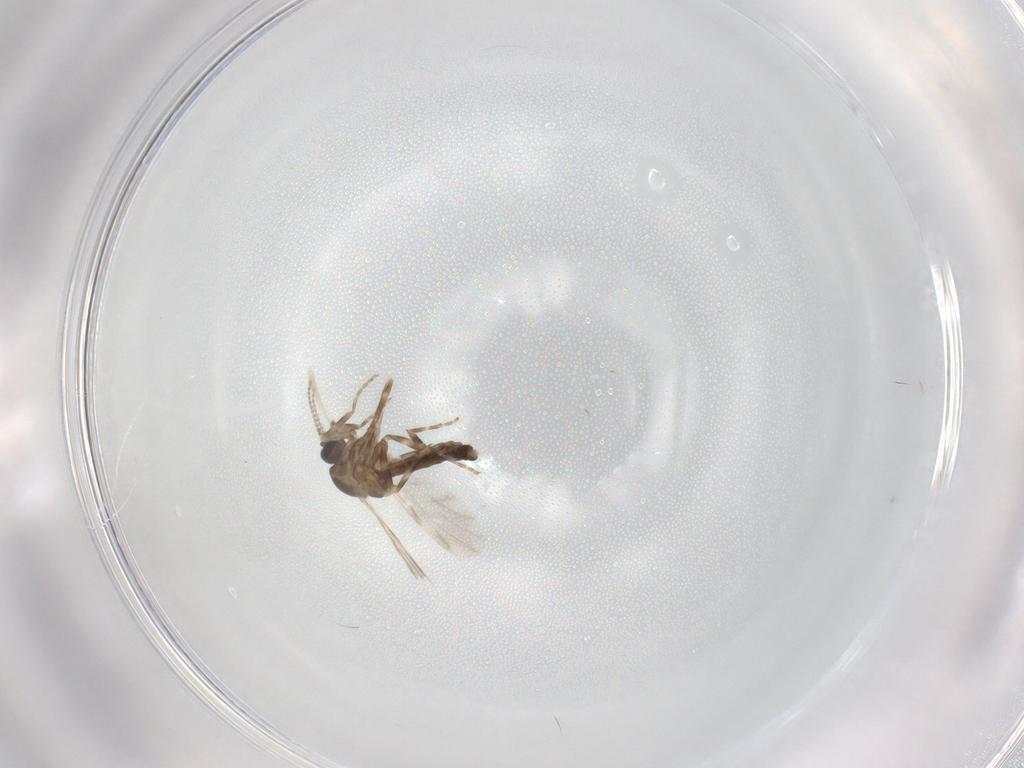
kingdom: Animalia
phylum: Arthropoda
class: Insecta
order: Diptera
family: Ceratopogonidae
